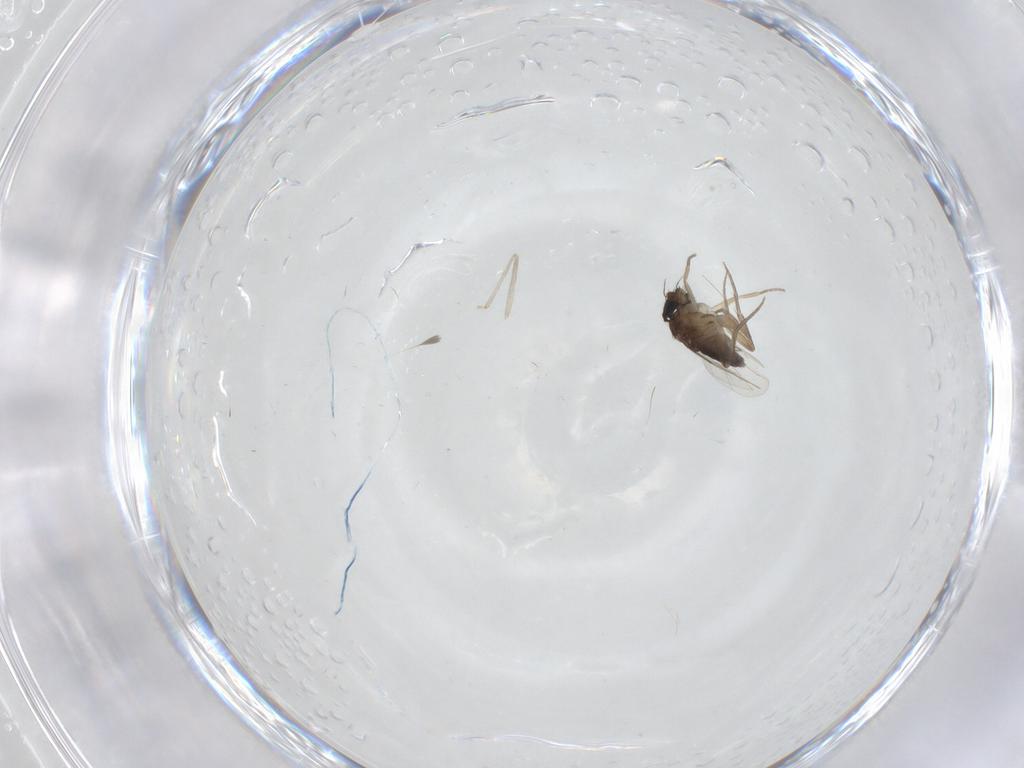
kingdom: Animalia
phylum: Arthropoda
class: Insecta
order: Diptera
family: Phoridae
